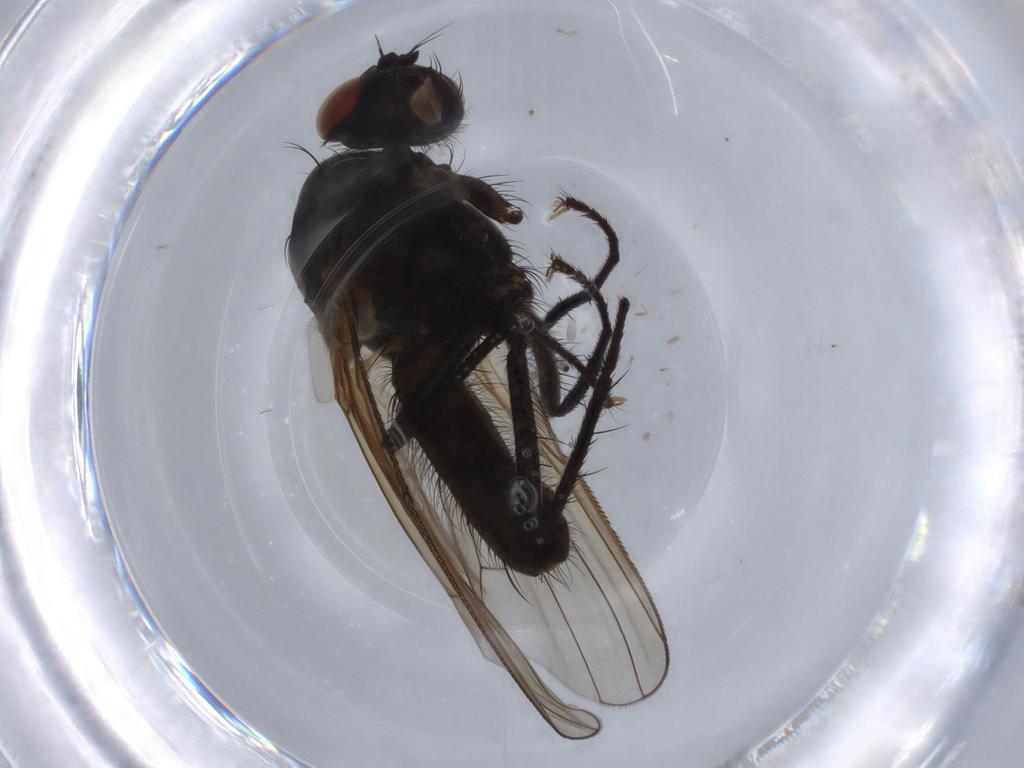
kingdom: Animalia
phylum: Arthropoda
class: Insecta
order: Diptera
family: Anthomyiidae
